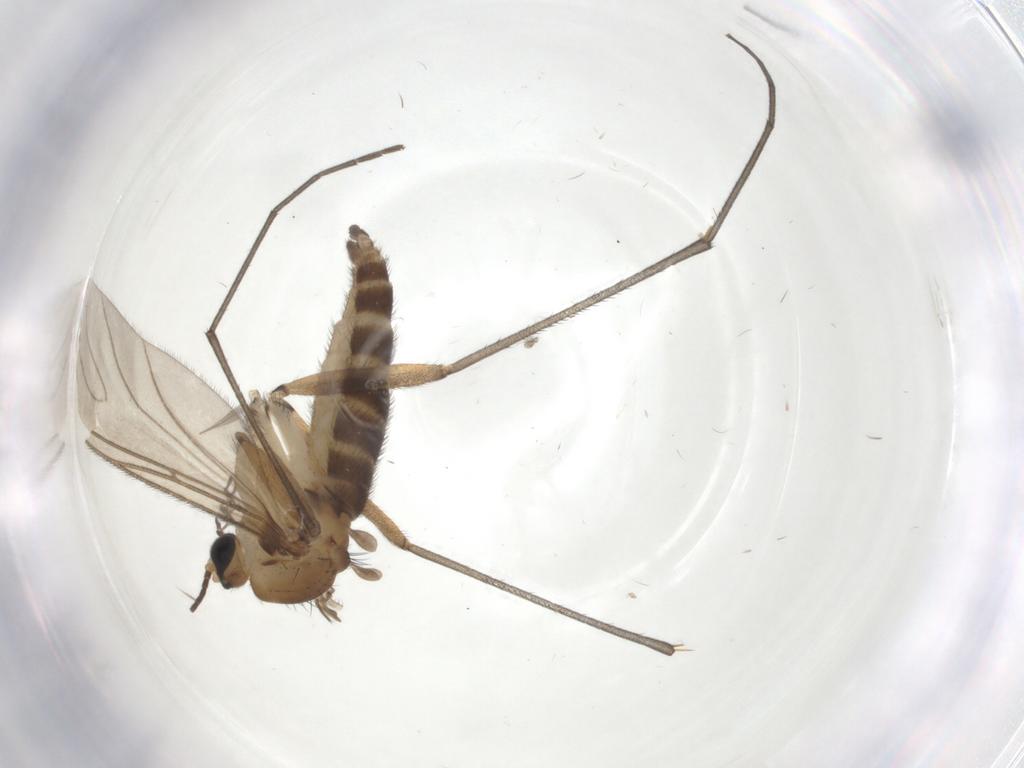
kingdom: Animalia
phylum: Arthropoda
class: Insecta
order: Diptera
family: Sciaridae
